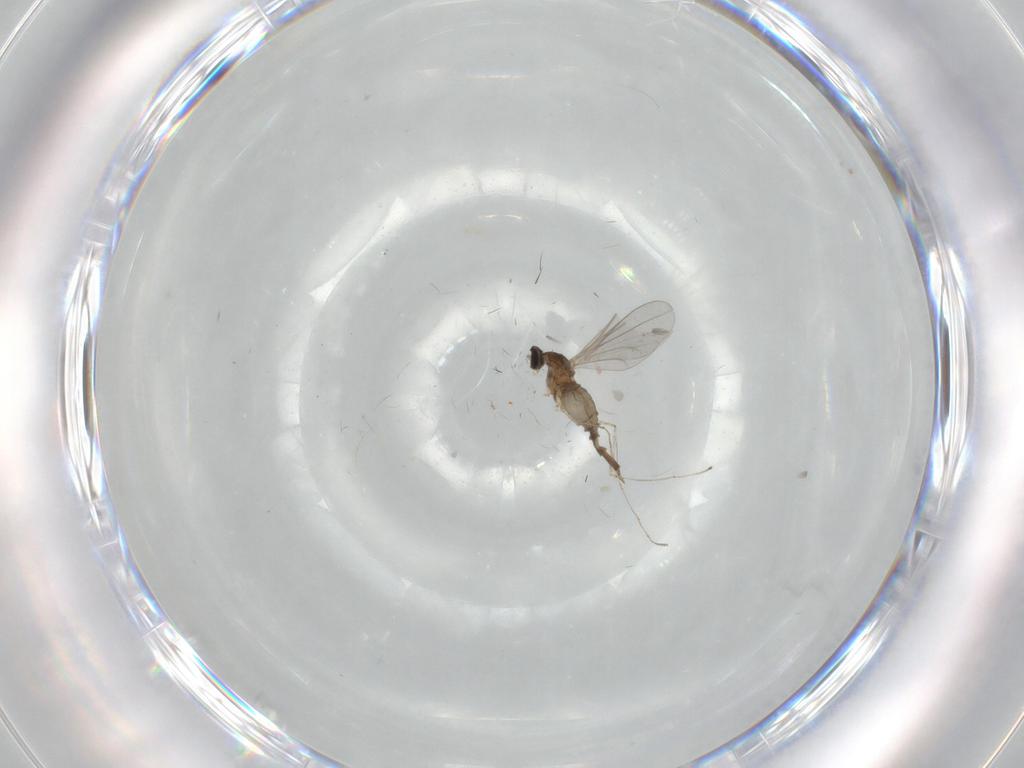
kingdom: Animalia
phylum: Arthropoda
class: Insecta
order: Diptera
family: Cecidomyiidae
